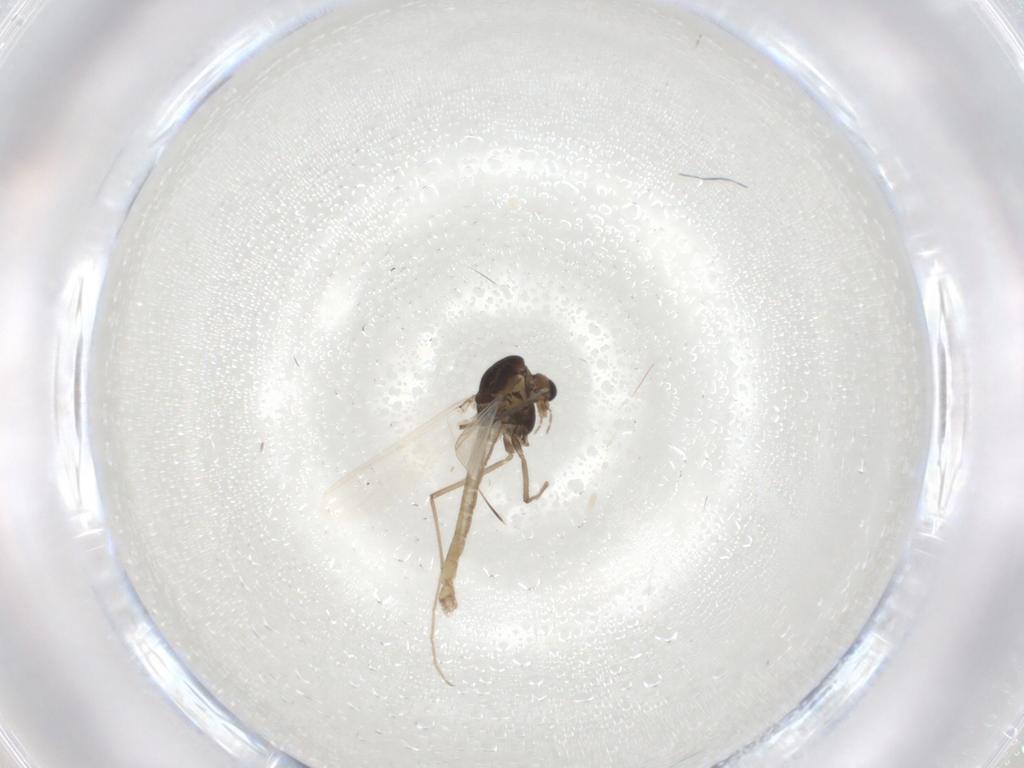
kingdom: Animalia
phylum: Arthropoda
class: Insecta
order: Diptera
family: Chironomidae
